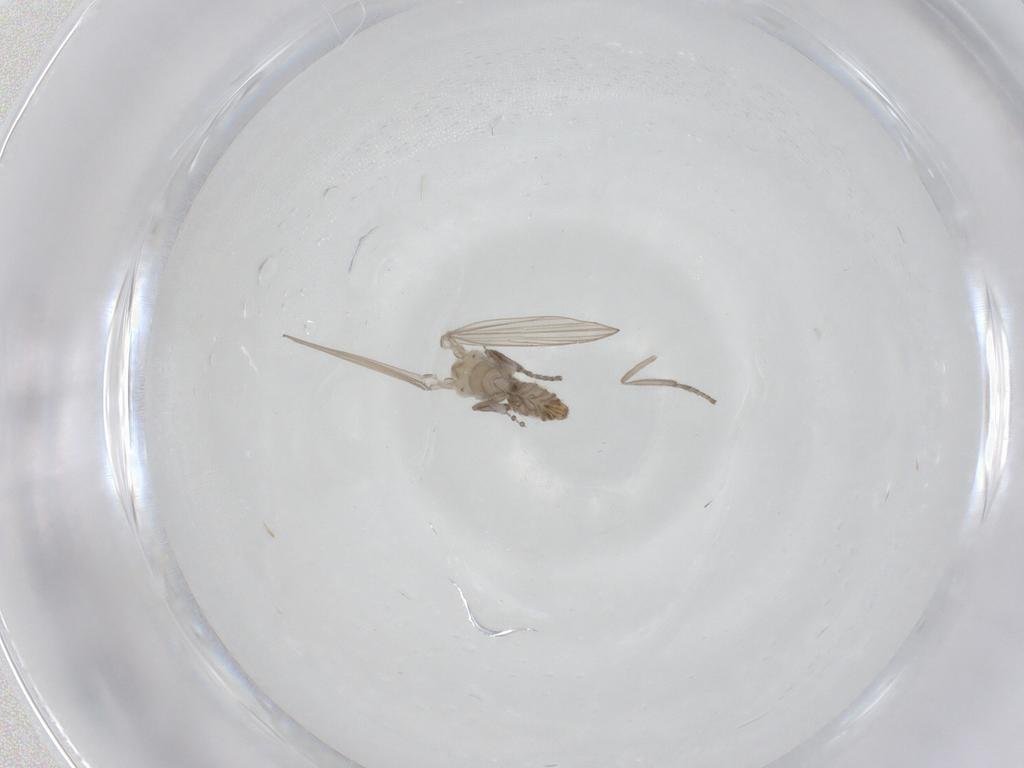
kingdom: Animalia
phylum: Arthropoda
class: Insecta
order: Diptera
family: Psychodidae
